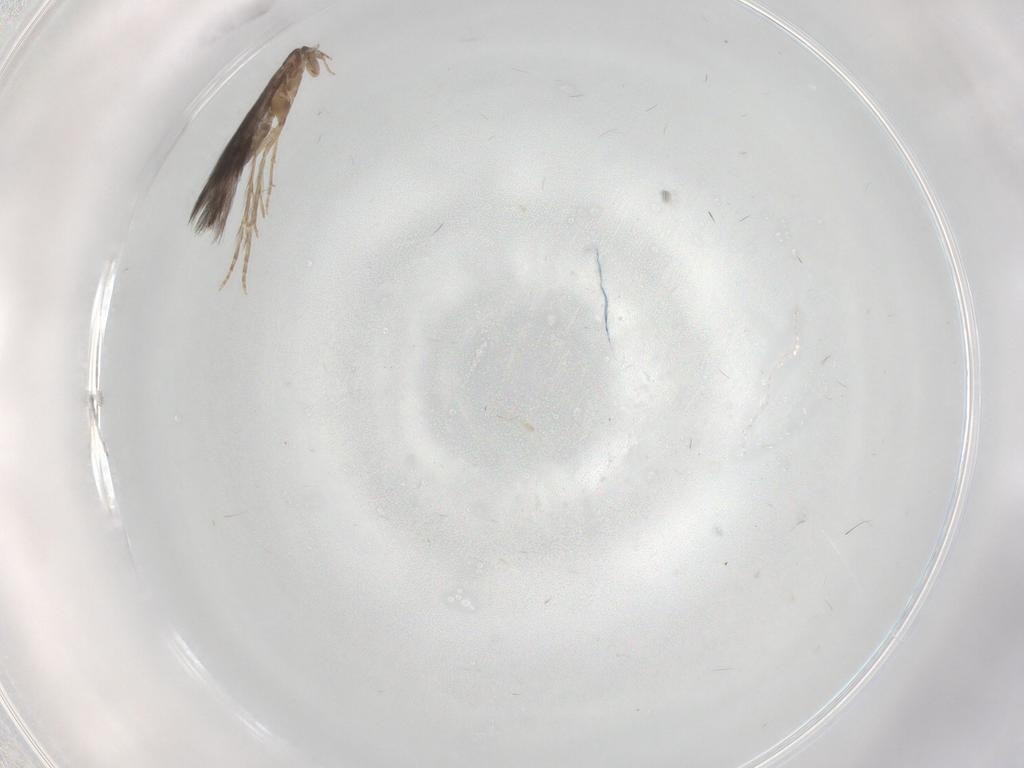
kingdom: Animalia
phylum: Arthropoda
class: Insecta
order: Trichoptera
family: Hydroptilidae
